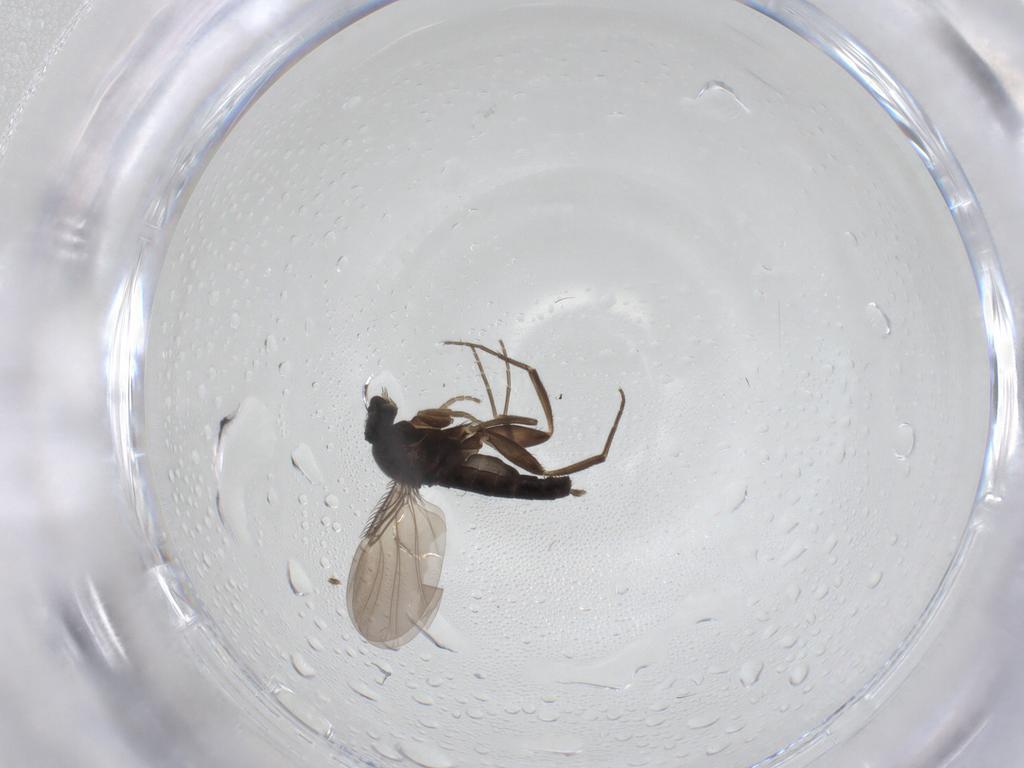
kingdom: Animalia
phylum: Arthropoda
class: Insecta
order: Diptera
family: Phoridae
